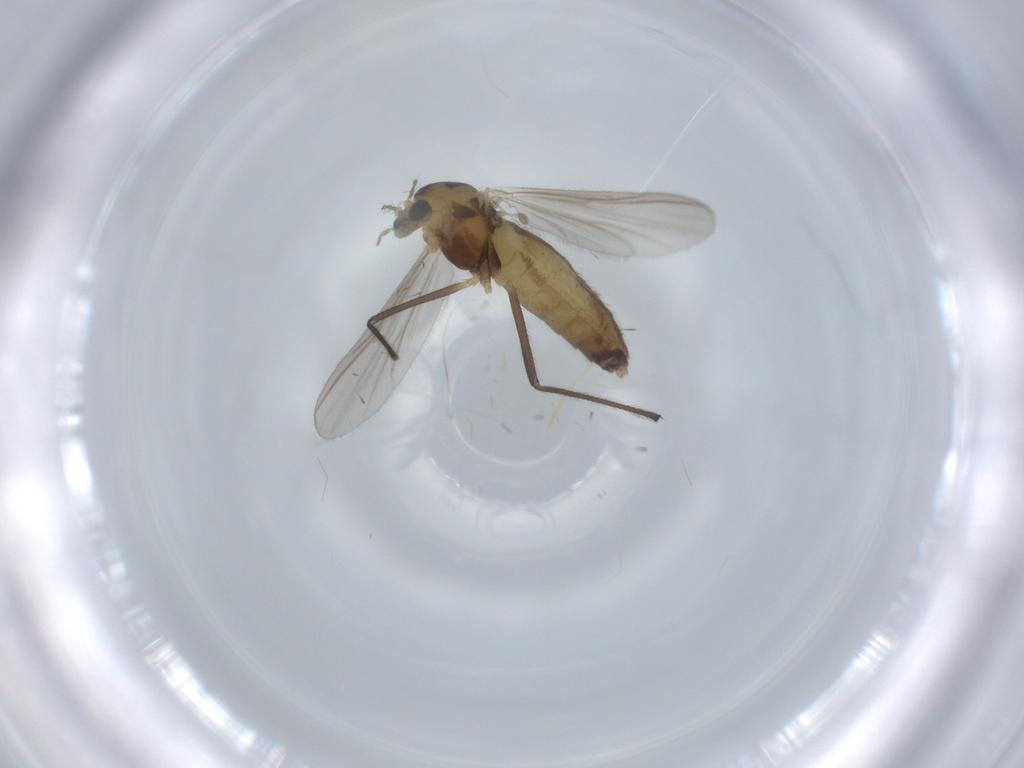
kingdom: Animalia
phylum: Arthropoda
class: Insecta
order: Diptera
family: Chironomidae
